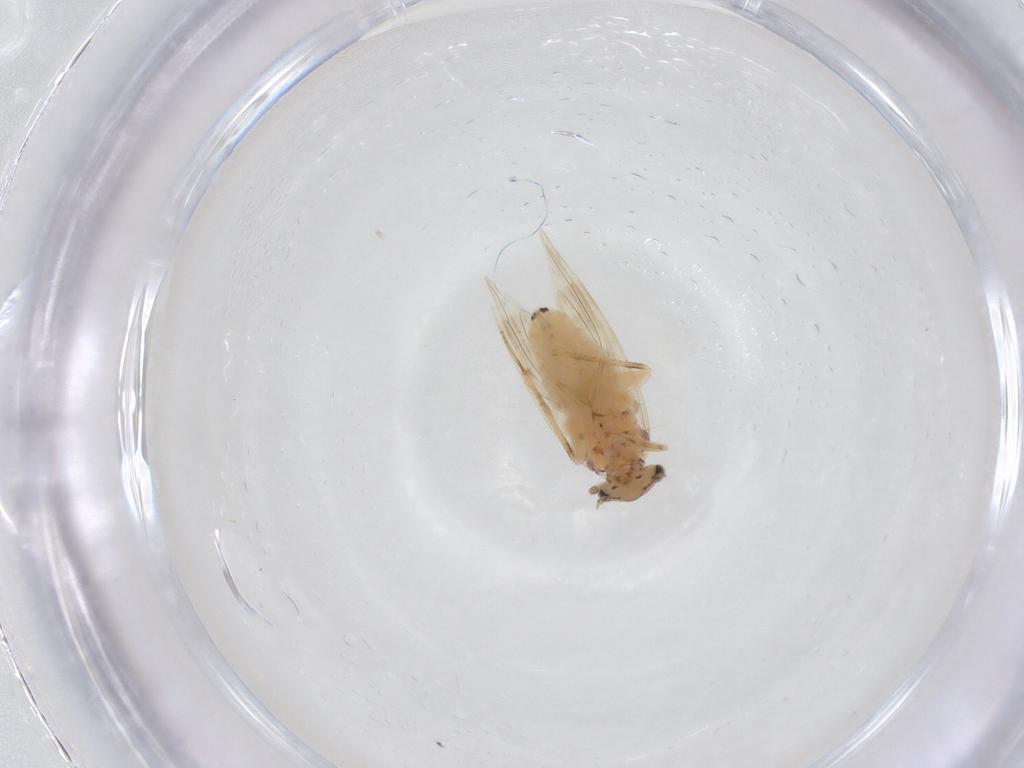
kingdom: Animalia
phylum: Arthropoda
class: Insecta
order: Psocodea
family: Lepidopsocidae
